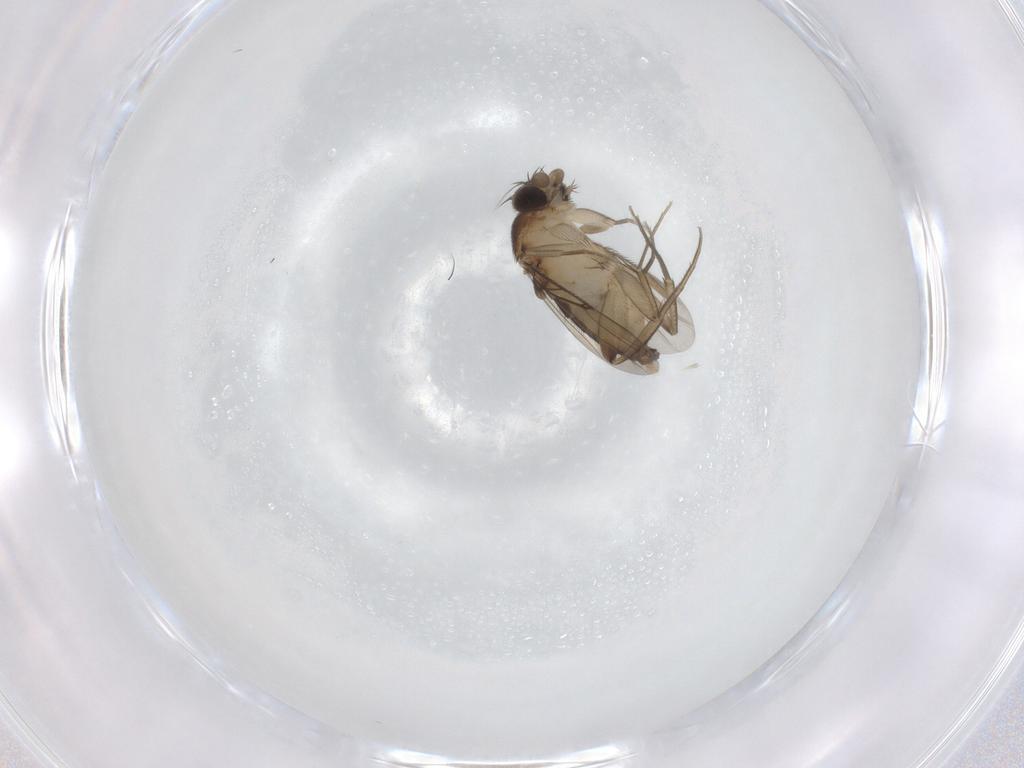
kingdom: Animalia
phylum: Arthropoda
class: Insecta
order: Diptera
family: Phoridae
